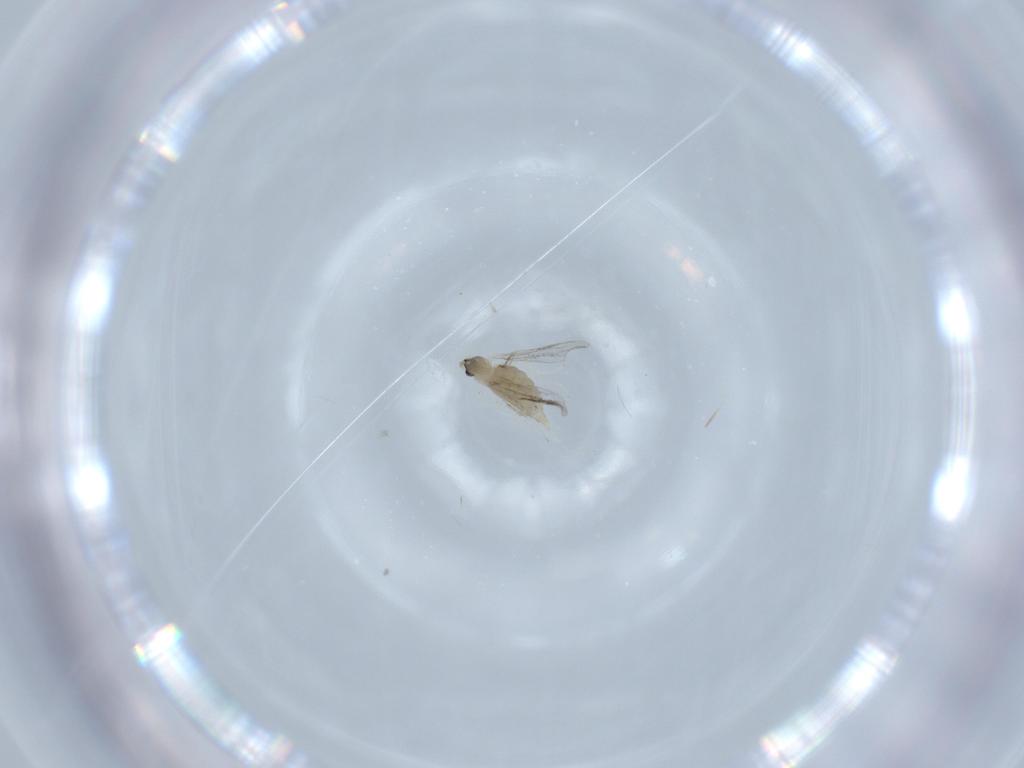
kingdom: Animalia
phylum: Arthropoda
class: Insecta
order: Diptera
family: Cecidomyiidae
